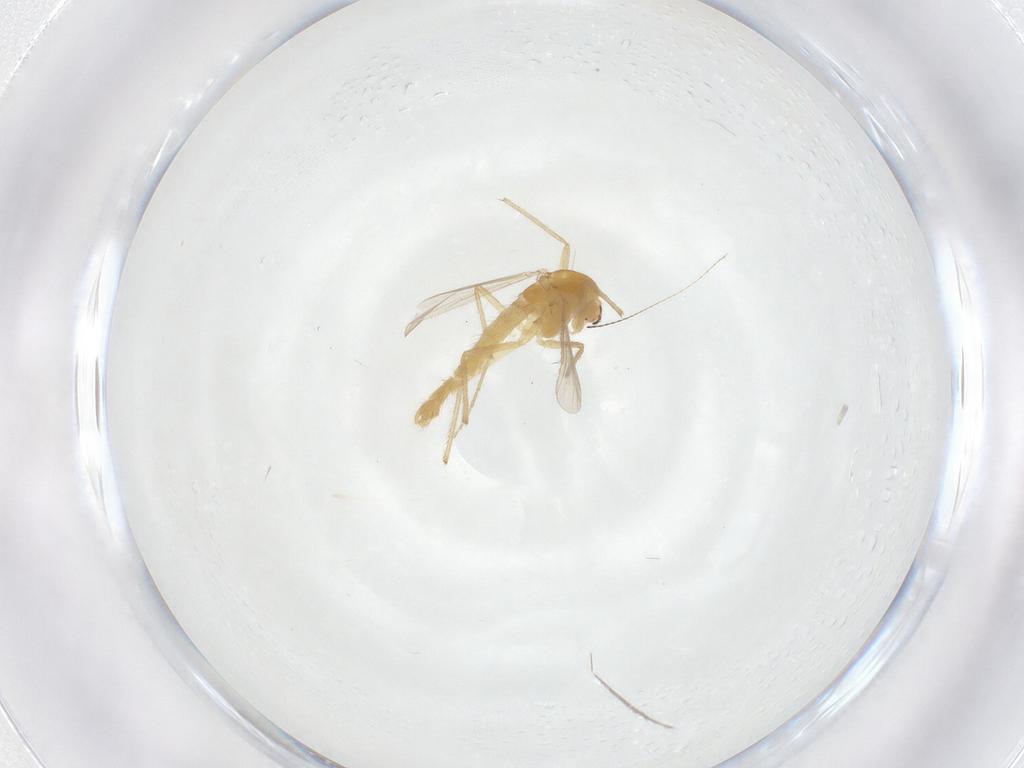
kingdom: Animalia
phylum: Arthropoda
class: Insecta
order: Diptera
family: Chironomidae
